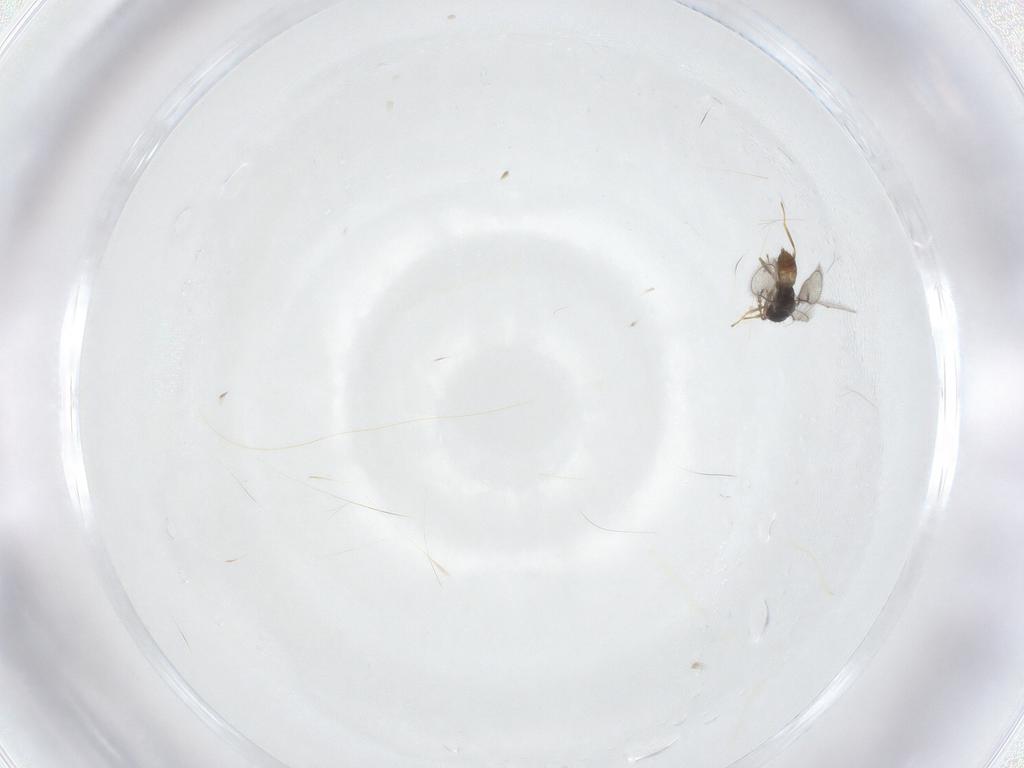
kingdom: Animalia
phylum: Arthropoda
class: Insecta
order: Hymenoptera
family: Eulophidae
